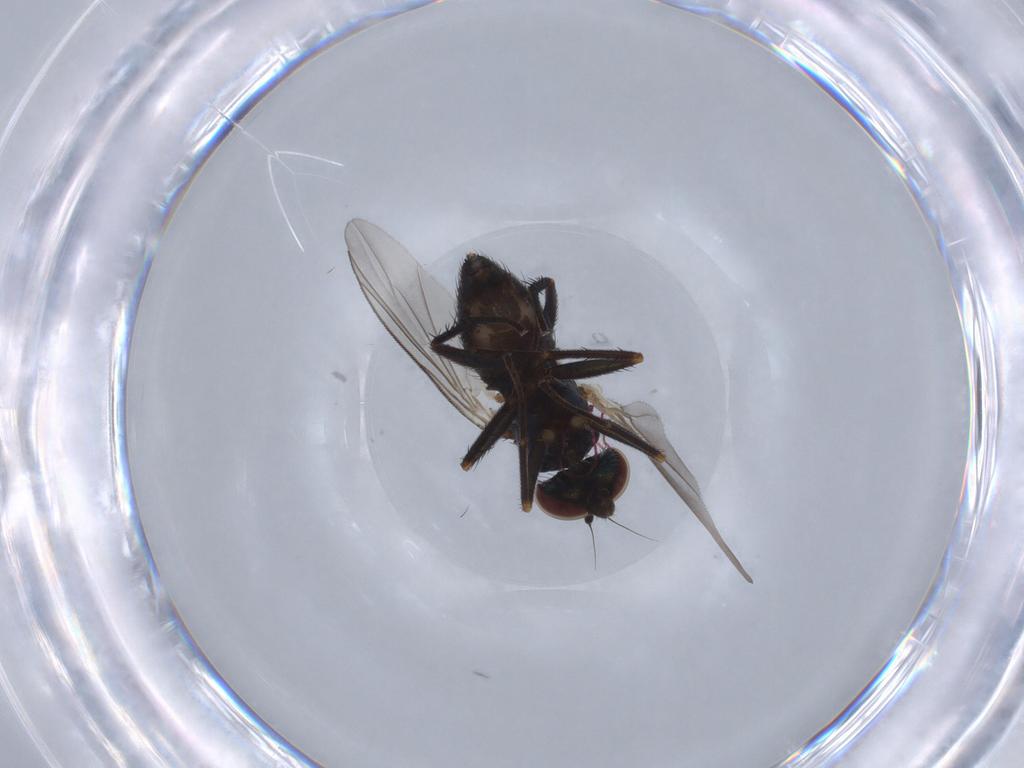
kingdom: Animalia
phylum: Arthropoda
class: Insecta
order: Diptera
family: Dolichopodidae
